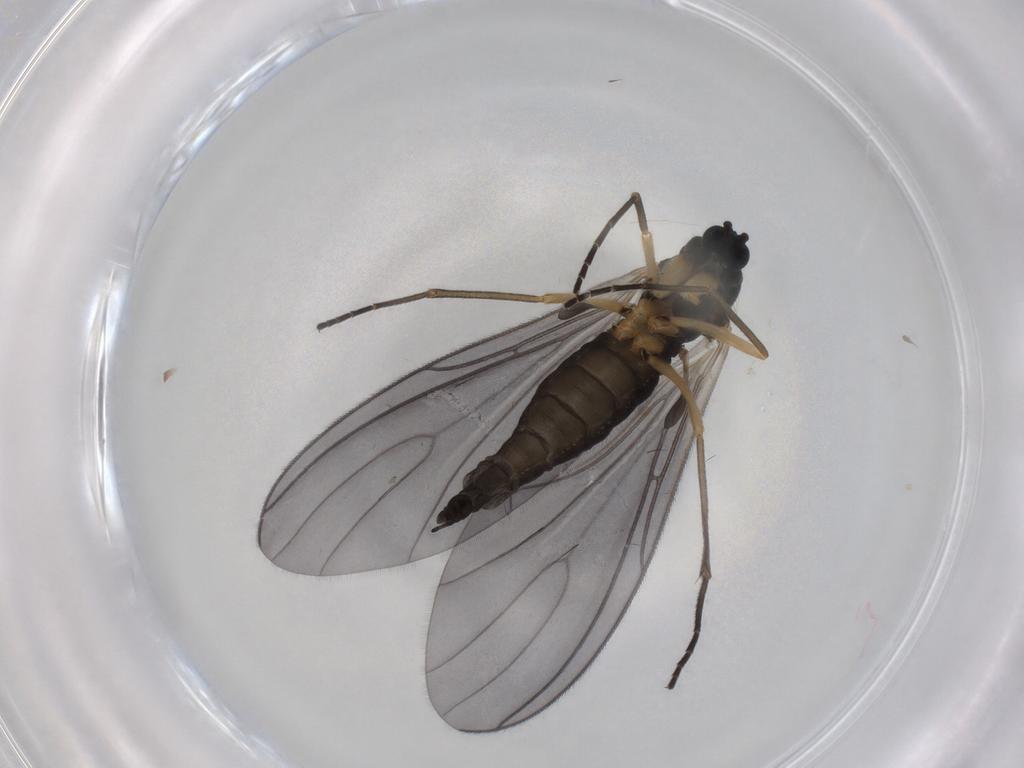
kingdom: Animalia
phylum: Arthropoda
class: Insecta
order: Diptera
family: Sciaridae
